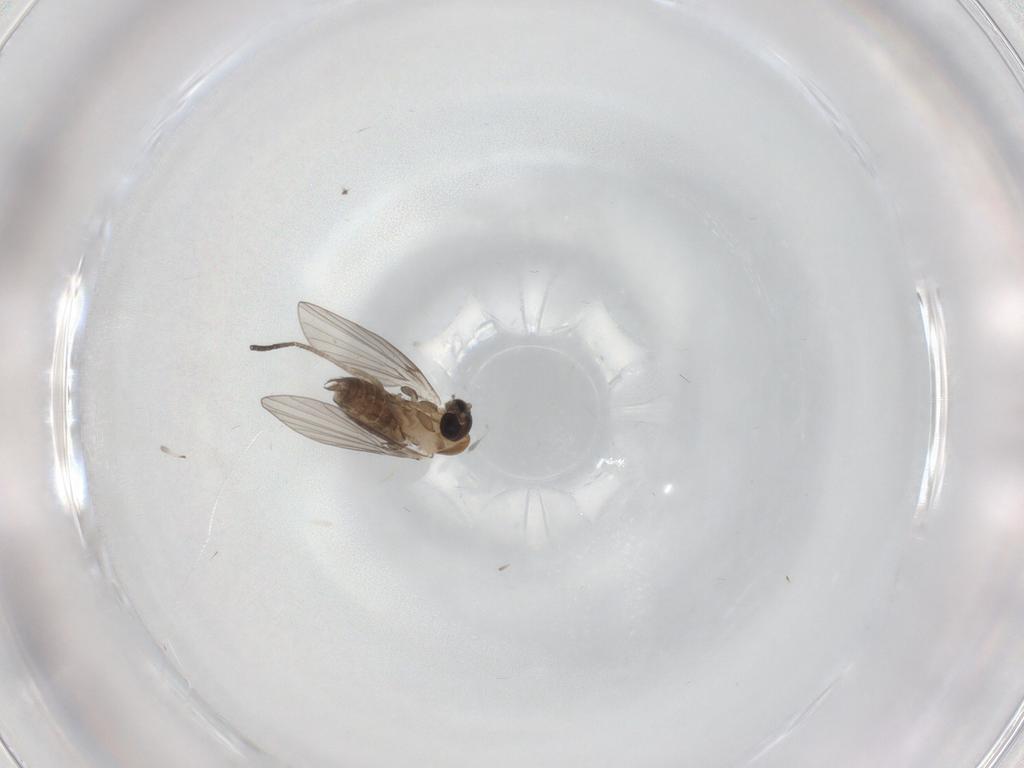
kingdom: Animalia
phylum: Arthropoda
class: Insecta
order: Diptera
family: Psychodidae
